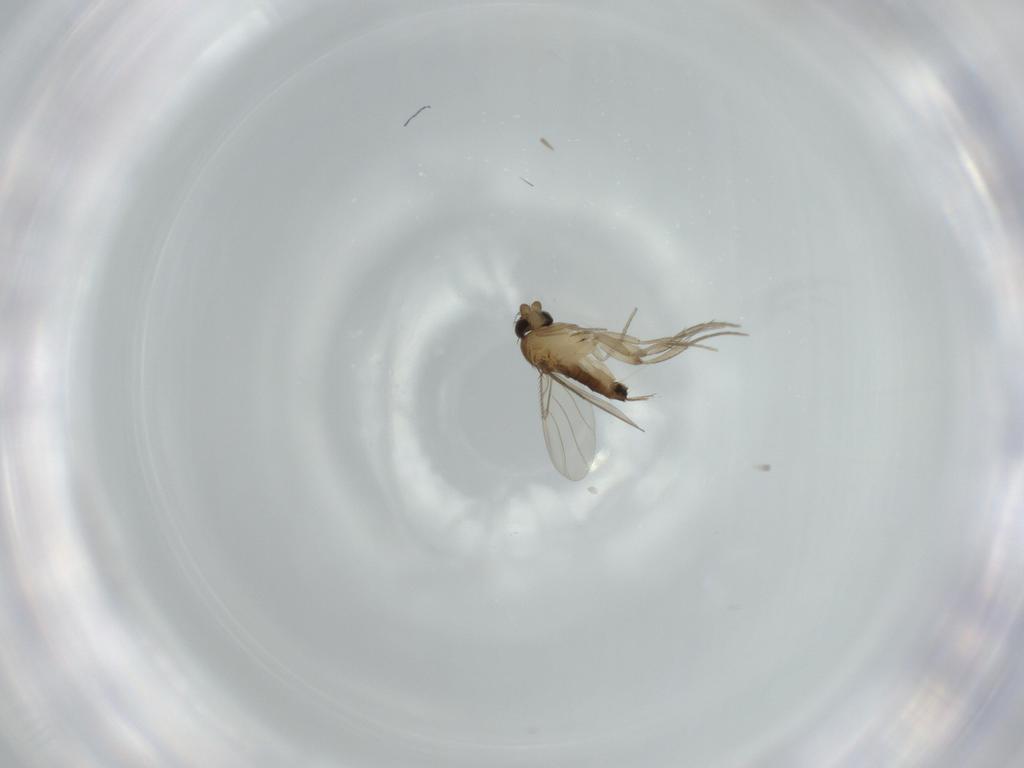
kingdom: Animalia
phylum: Arthropoda
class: Insecta
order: Diptera
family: Phoridae
